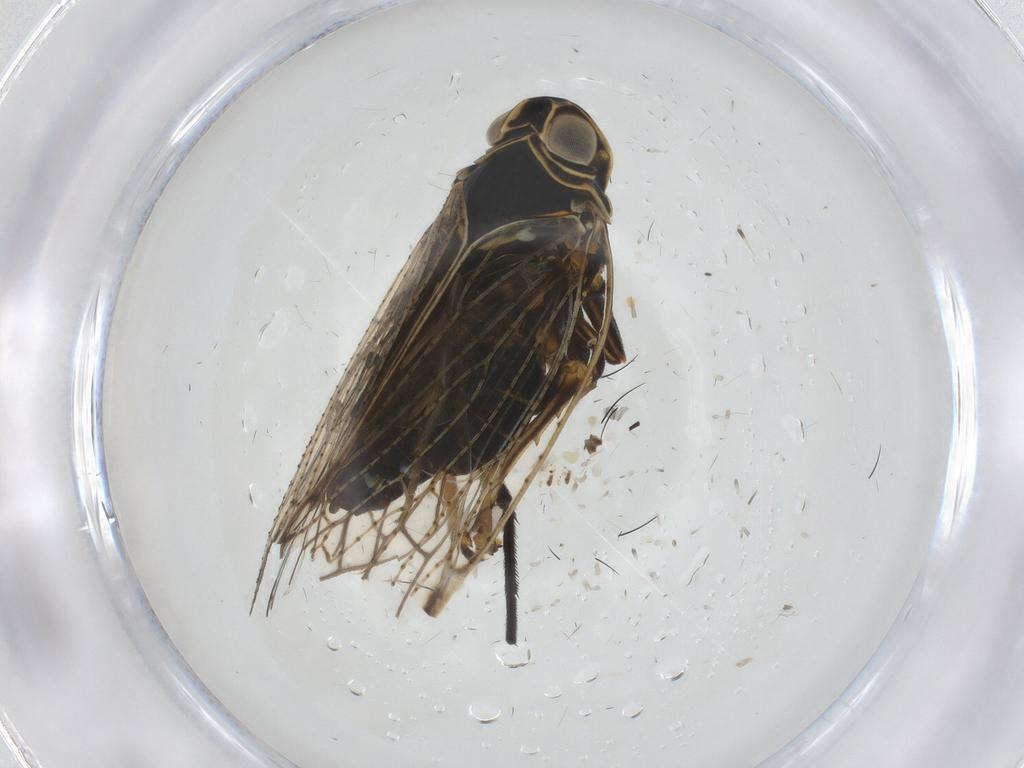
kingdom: Animalia
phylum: Arthropoda
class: Insecta
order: Hemiptera
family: Cixiidae
